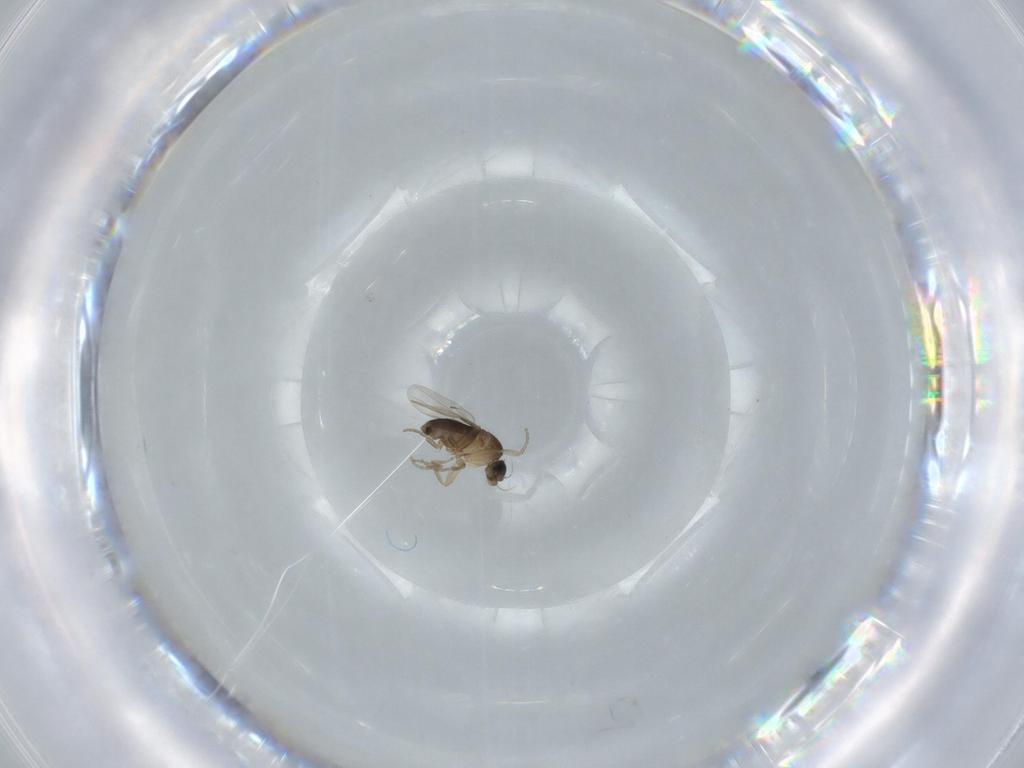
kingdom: Animalia
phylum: Arthropoda
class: Insecta
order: Diptera
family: Phoridae
